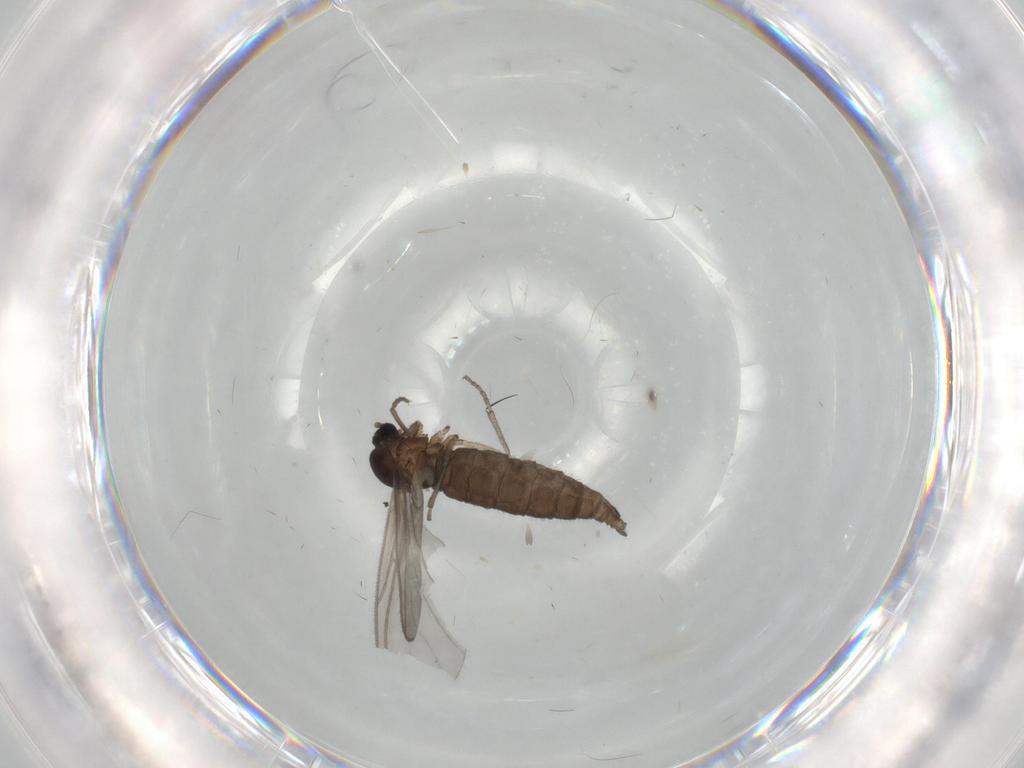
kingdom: Animalia
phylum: Arthropoda
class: Insecta
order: Diptera
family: Sciaridae
